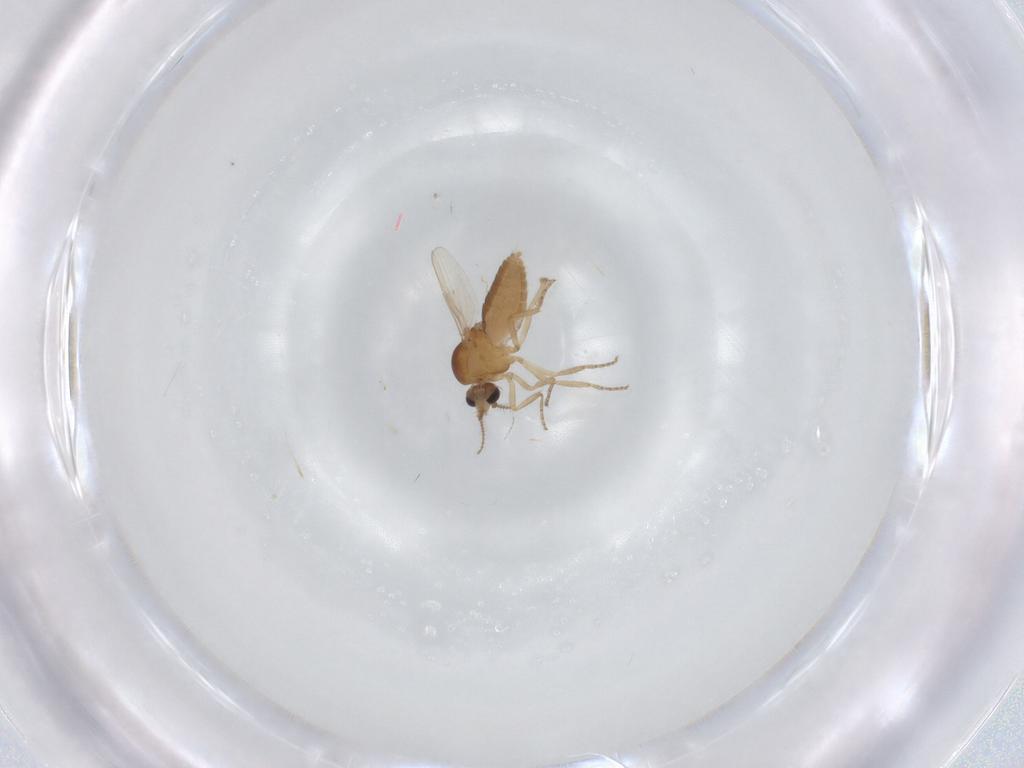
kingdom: Animalia
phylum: Arthropoda
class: Insecta
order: Diptera
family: Ceratopogonidae
